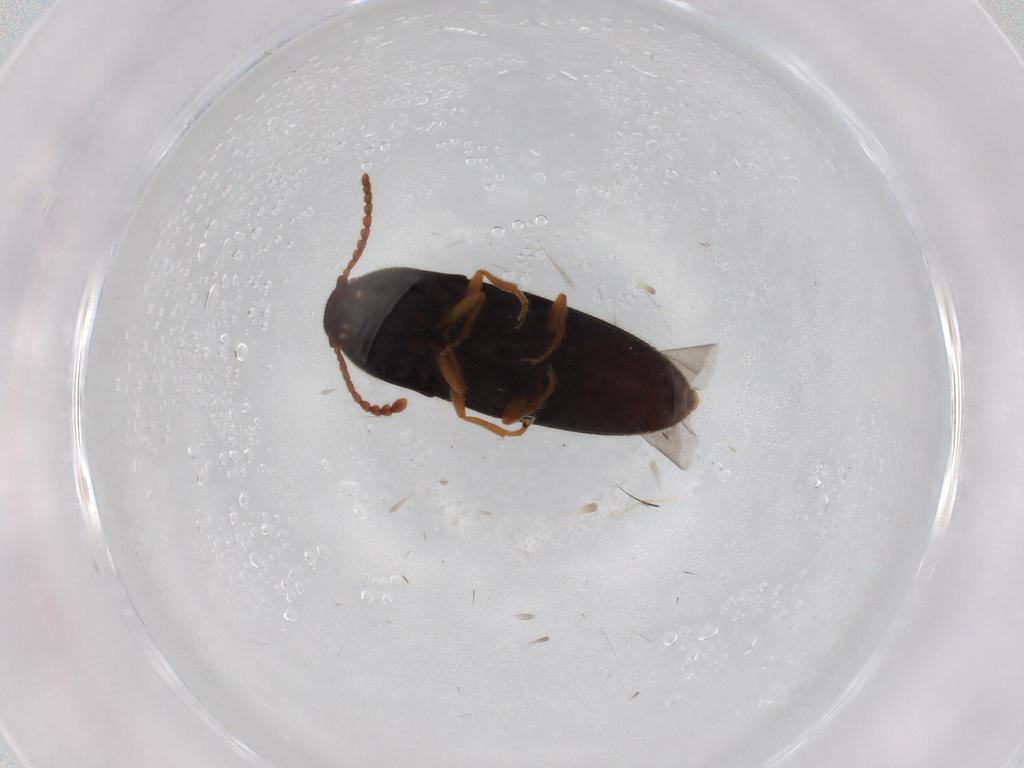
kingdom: Animalia
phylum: Arthropoda
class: Insecta
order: Coleoptera
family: Elateridae
